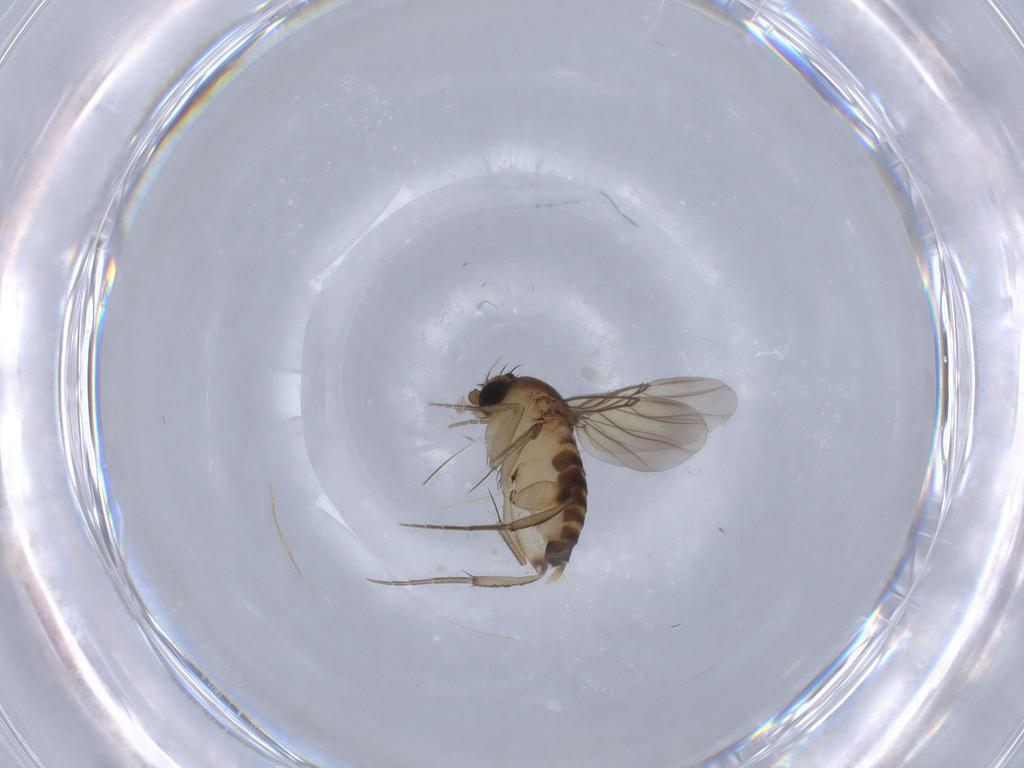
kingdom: Animalia
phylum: Arthropoda
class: Insecta
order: Diptera
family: Phoridae
